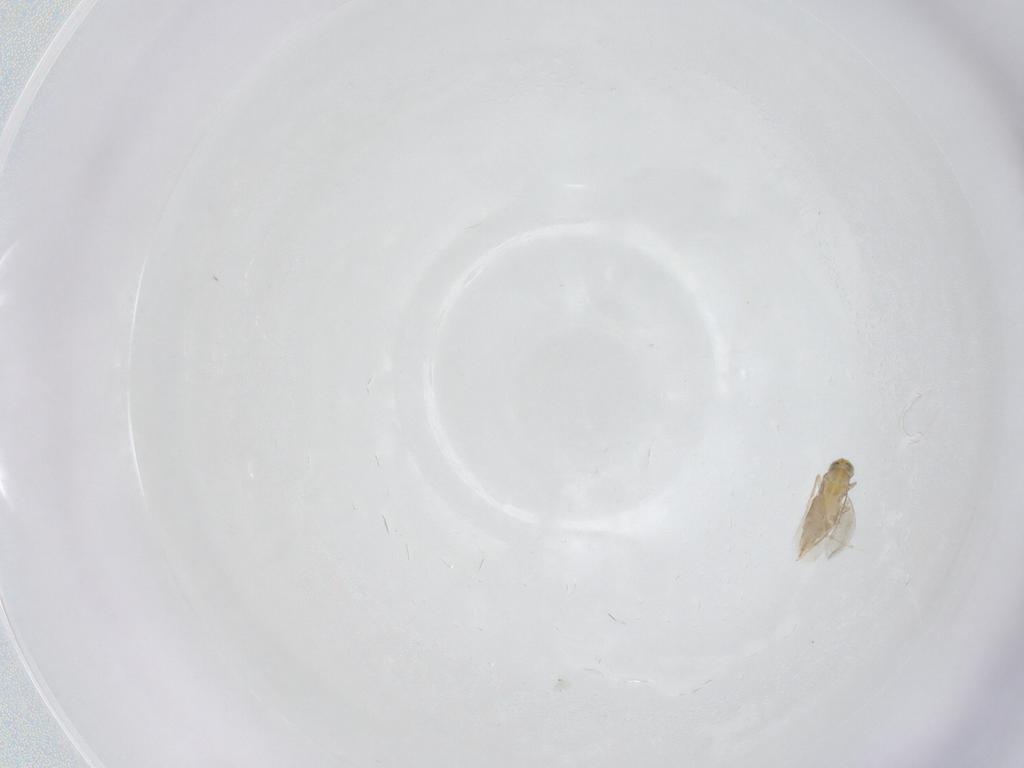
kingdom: Animalia
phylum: Arthropoda
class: Insecta
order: Hymenoptera
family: Aphelinidae
